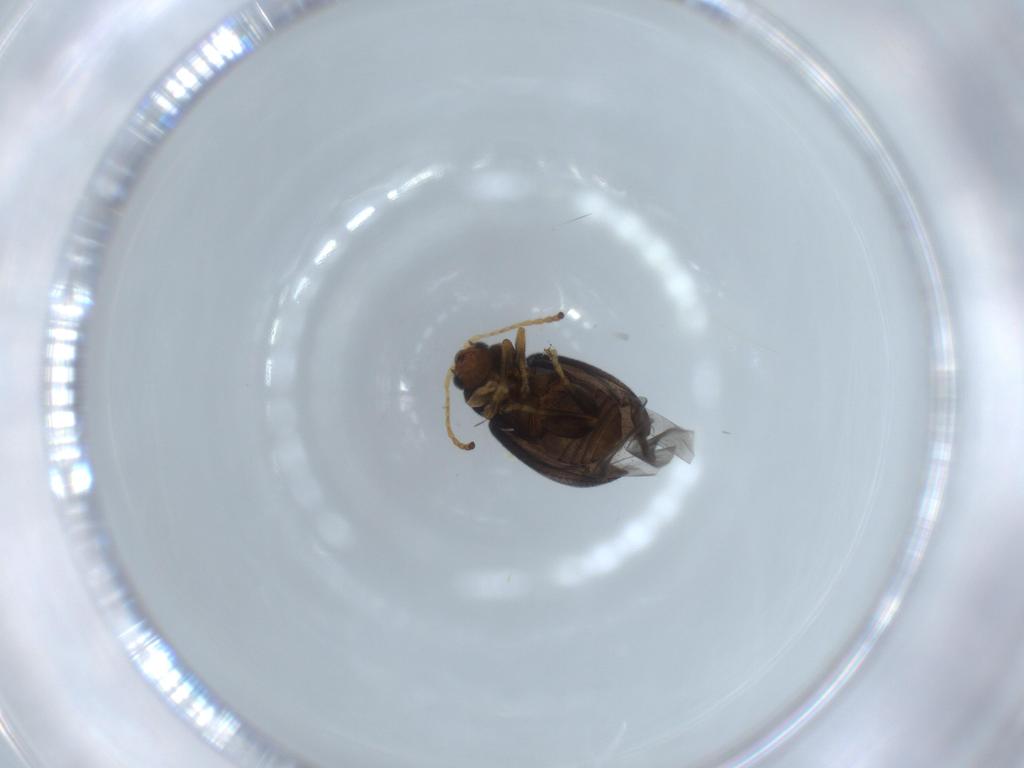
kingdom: Animalia
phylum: Arthropoda
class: Insecta
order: Coleoptera
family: Chrysomelidae
